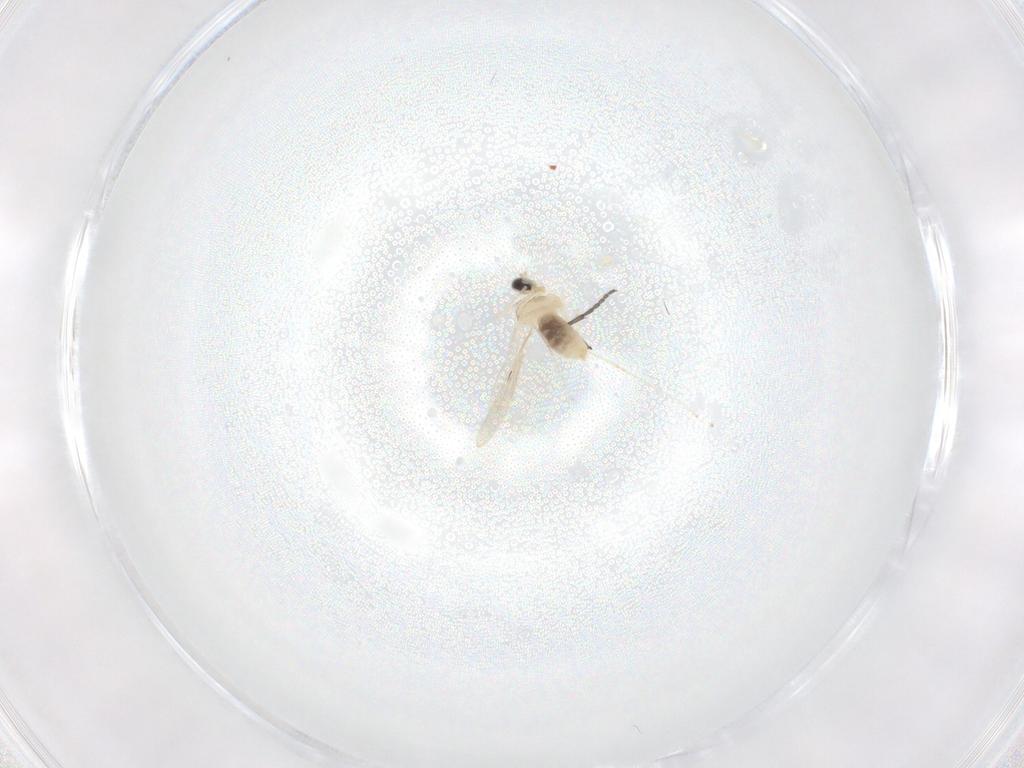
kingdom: Animalia
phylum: Arthropoda
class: Insecta
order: Diptera
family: Sciaridae
